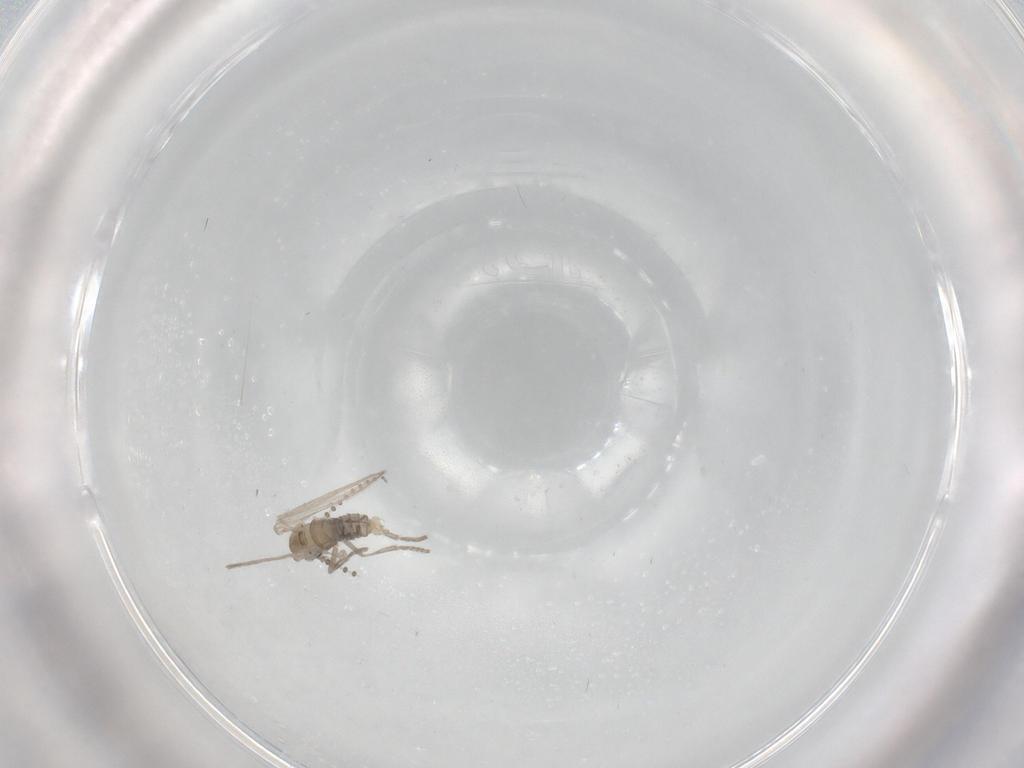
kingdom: Animalia
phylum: Arthropoda
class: Insecta
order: Diptera
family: Psychodidae
